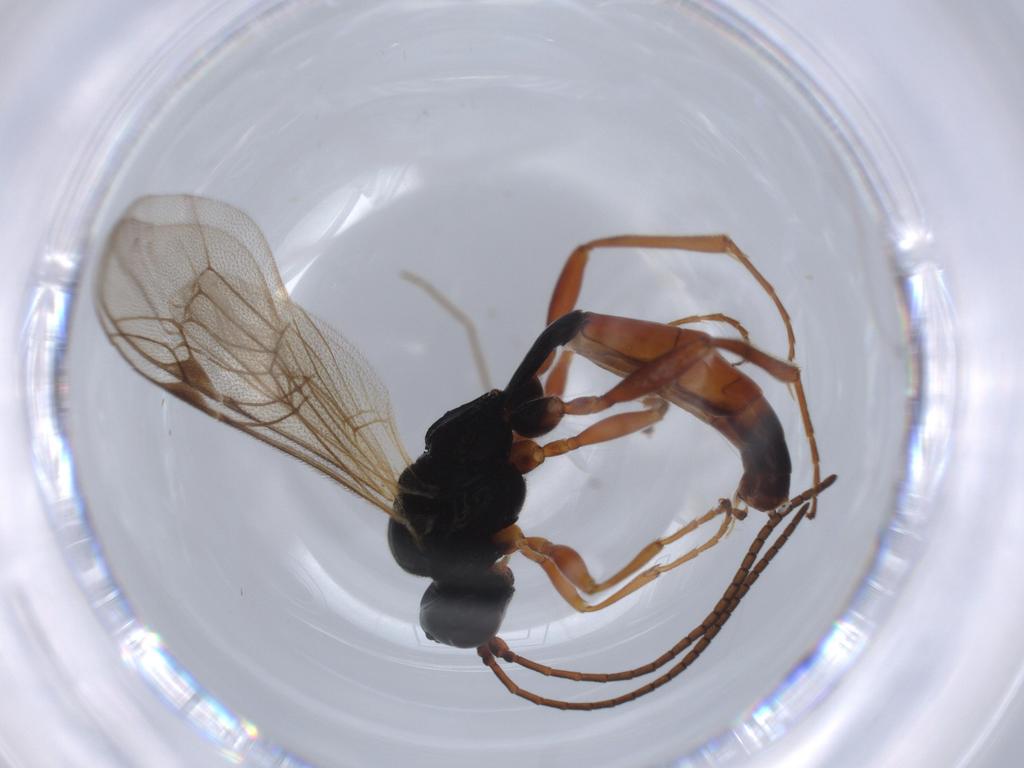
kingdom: Animalia
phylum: Arthropoda
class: Insecta
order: Hymenoptera
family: Ichneumonidae
